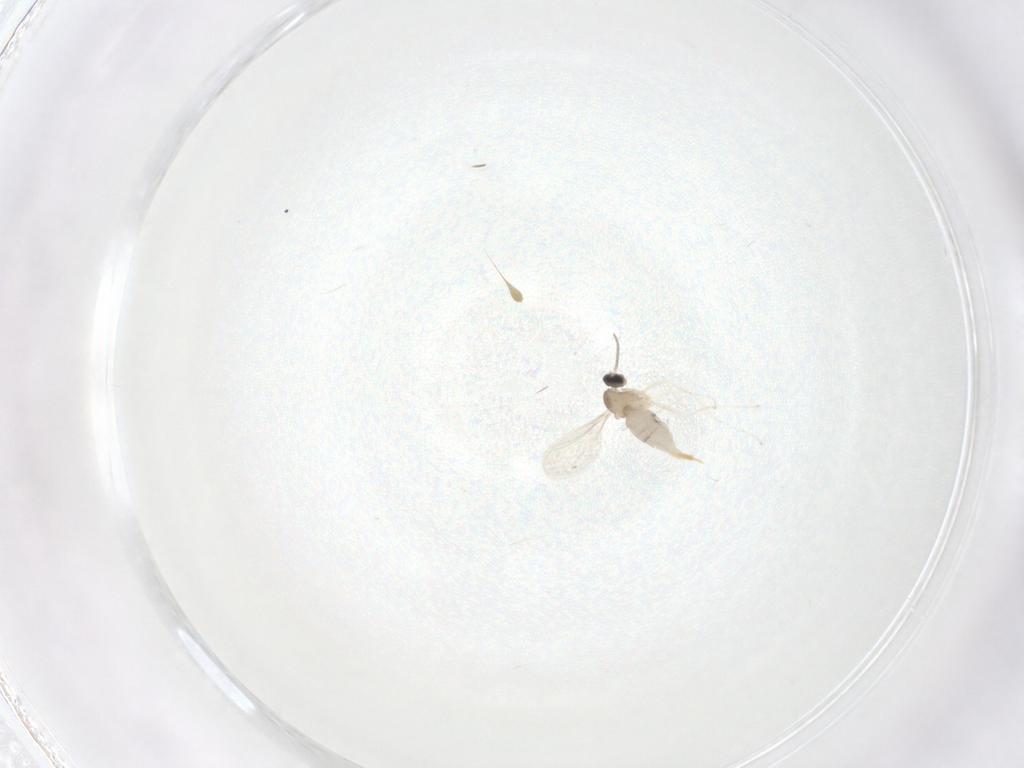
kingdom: Animalia
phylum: Arthropoda
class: Insecta
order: Diptera
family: Cecidomyiidae
